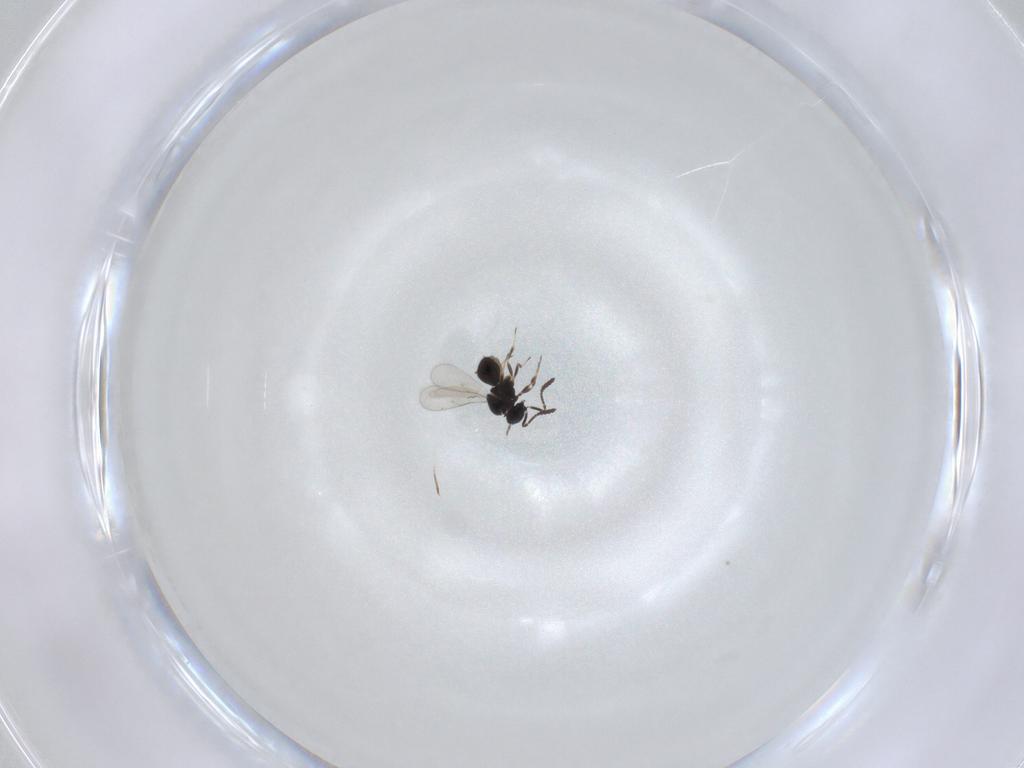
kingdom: Animalia
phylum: Arthropoda
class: Insecta
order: Hymenoptera
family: Scelionidae
